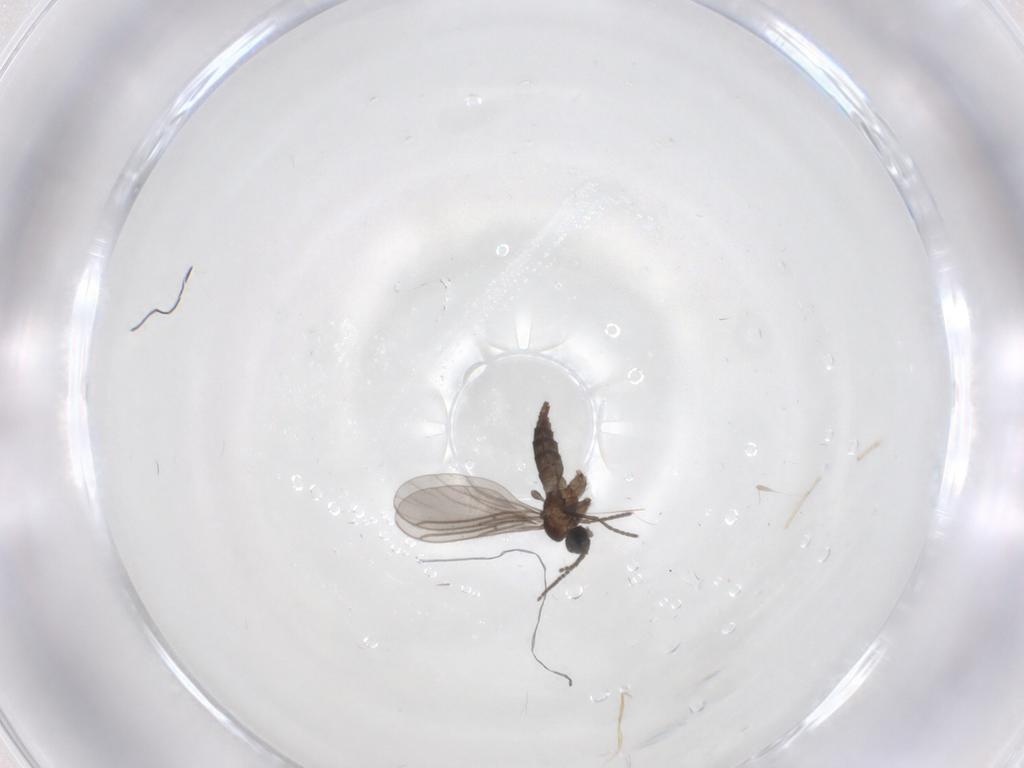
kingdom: Animalia
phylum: Arthropoda
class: Insecta
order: Diptera
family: Sciaridae
